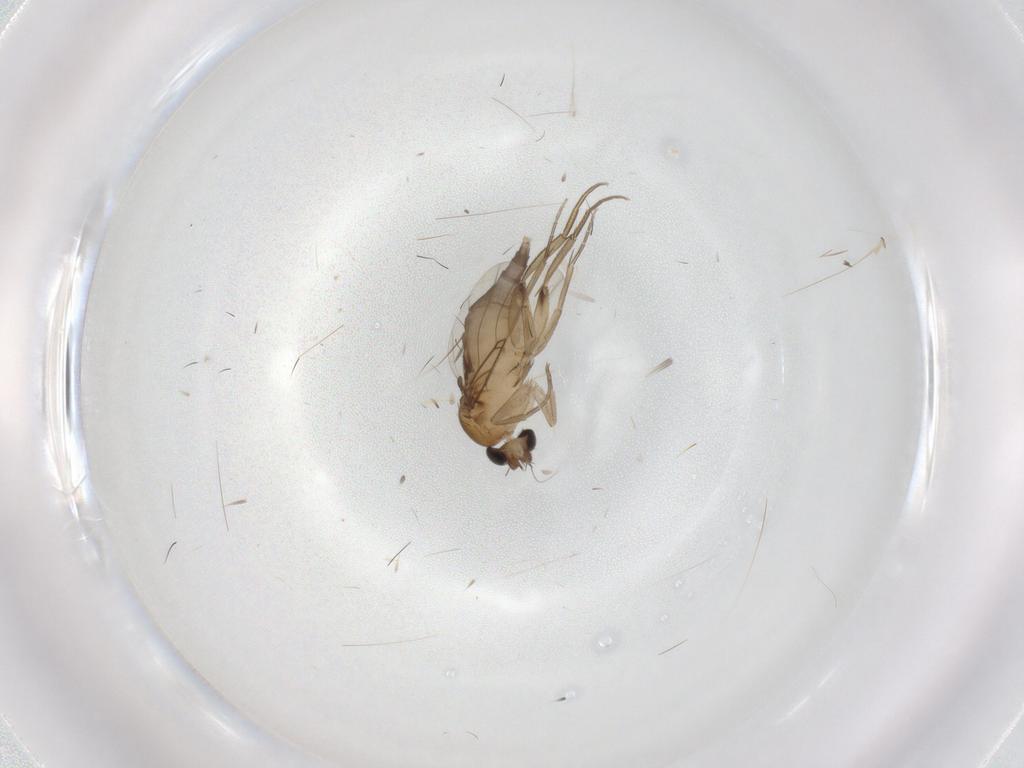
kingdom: Animalia
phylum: Arthropoda
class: Insecta
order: Diptera
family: Phoridae
